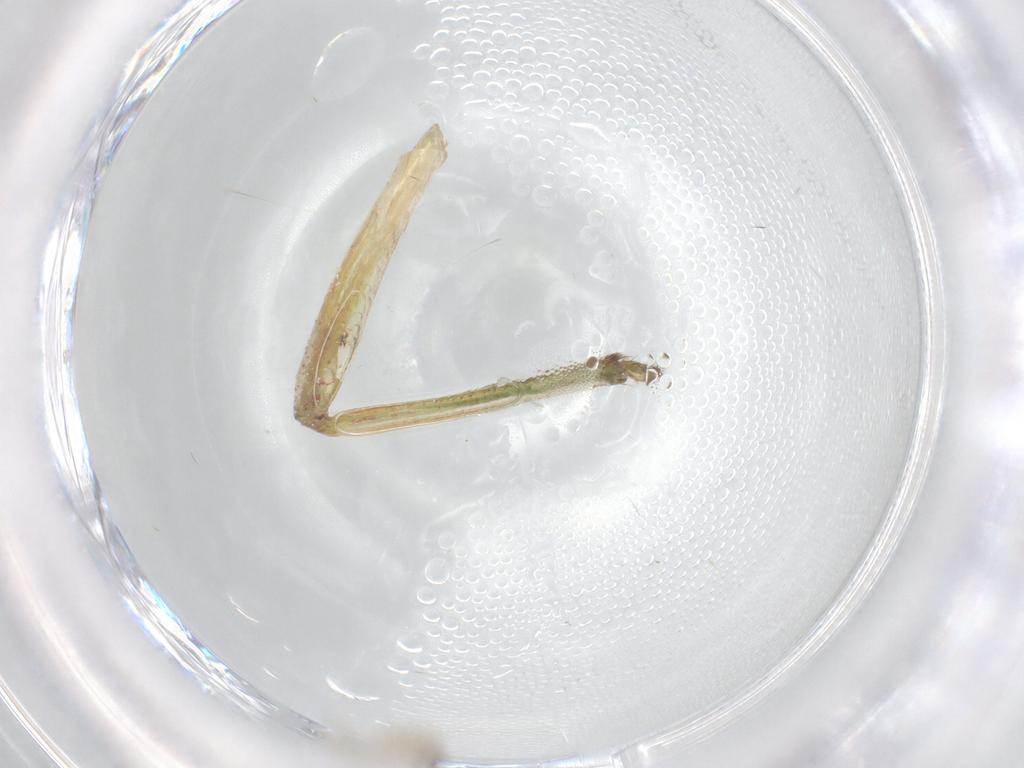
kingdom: Animalia
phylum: Arthropoda
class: Insecta
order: Diptera
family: Cecidomyiidae
